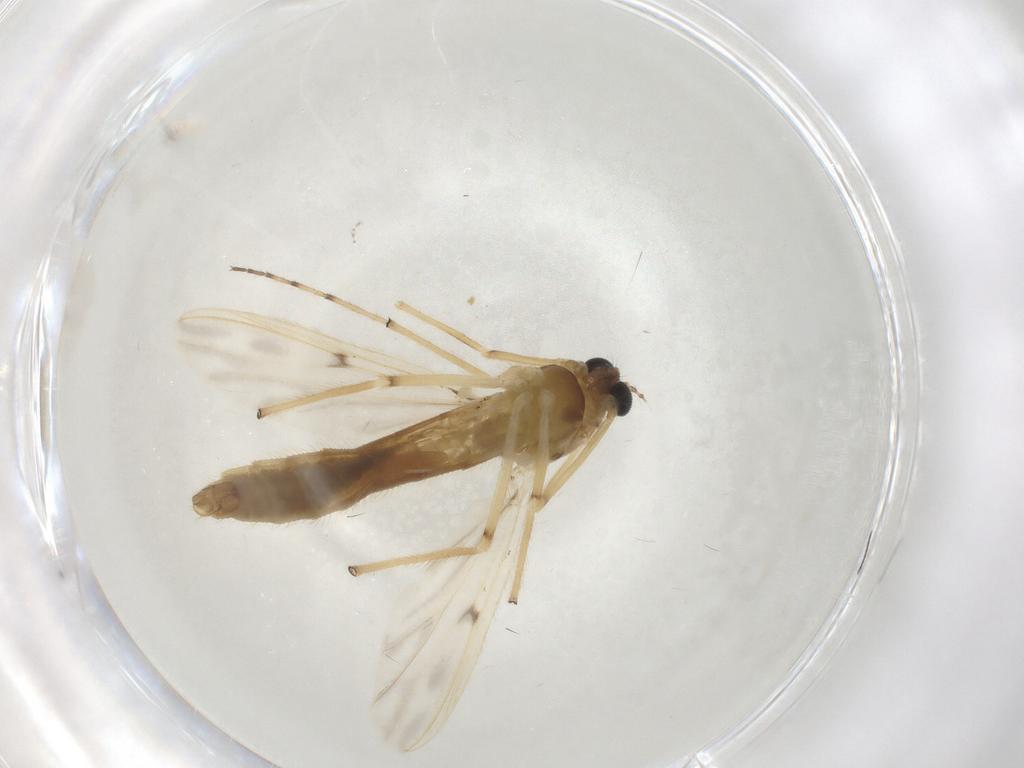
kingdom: Animalia
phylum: Arthropoda
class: Insecta
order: Diptera
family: Chironomidae
